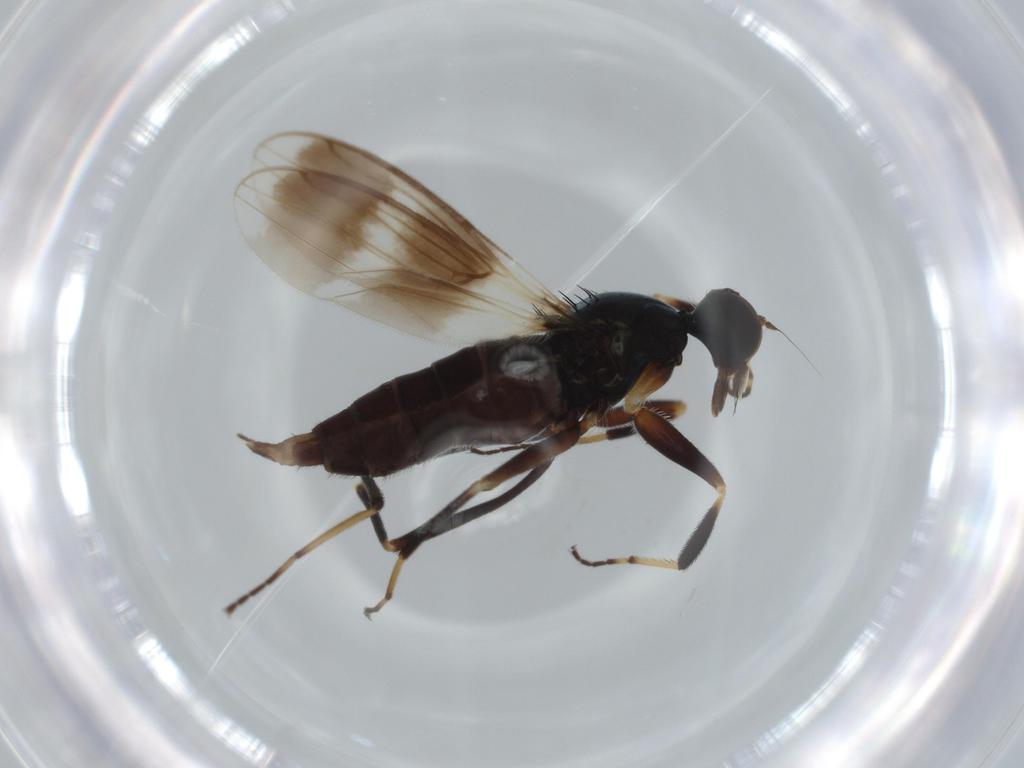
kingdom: Animalia
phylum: Arthropoda
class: Insecta
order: Diptera
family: Hybotidae
